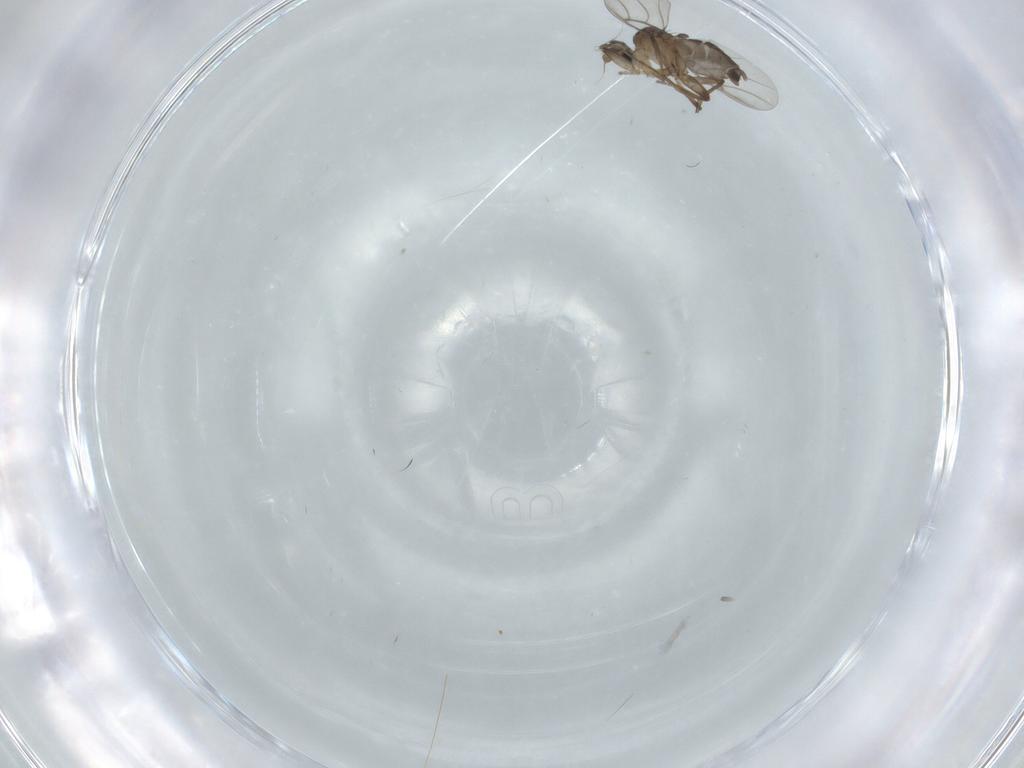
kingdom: Animalia
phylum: Arthropoda
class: Insecta
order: Diptera
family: Phoridae
